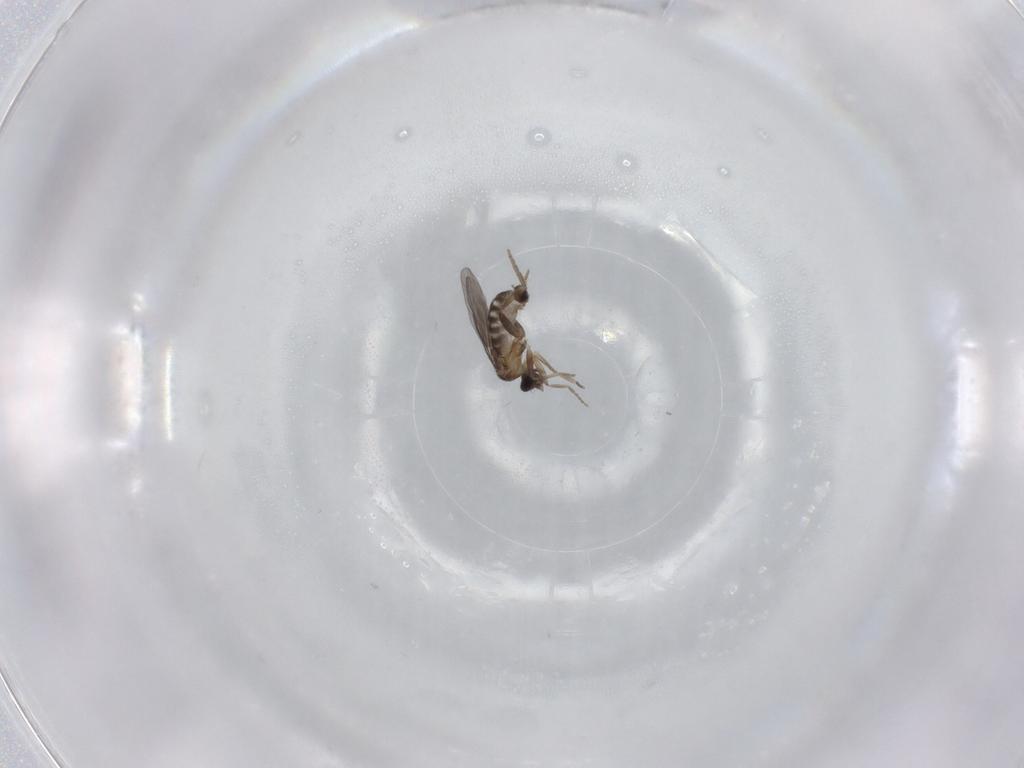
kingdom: Animalia
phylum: Arthropoda
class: Insecta
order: Diptera
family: Phoridae
